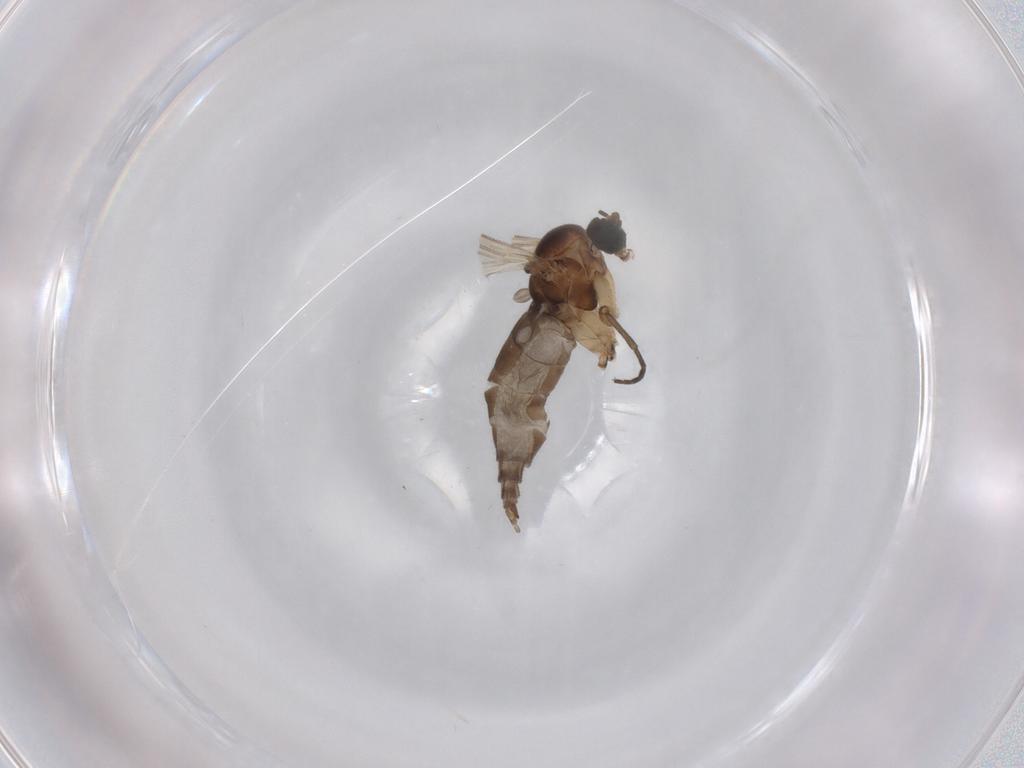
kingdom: Animalia
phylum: Arthropoda
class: Insecta
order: Diptera
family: Sciaridae
